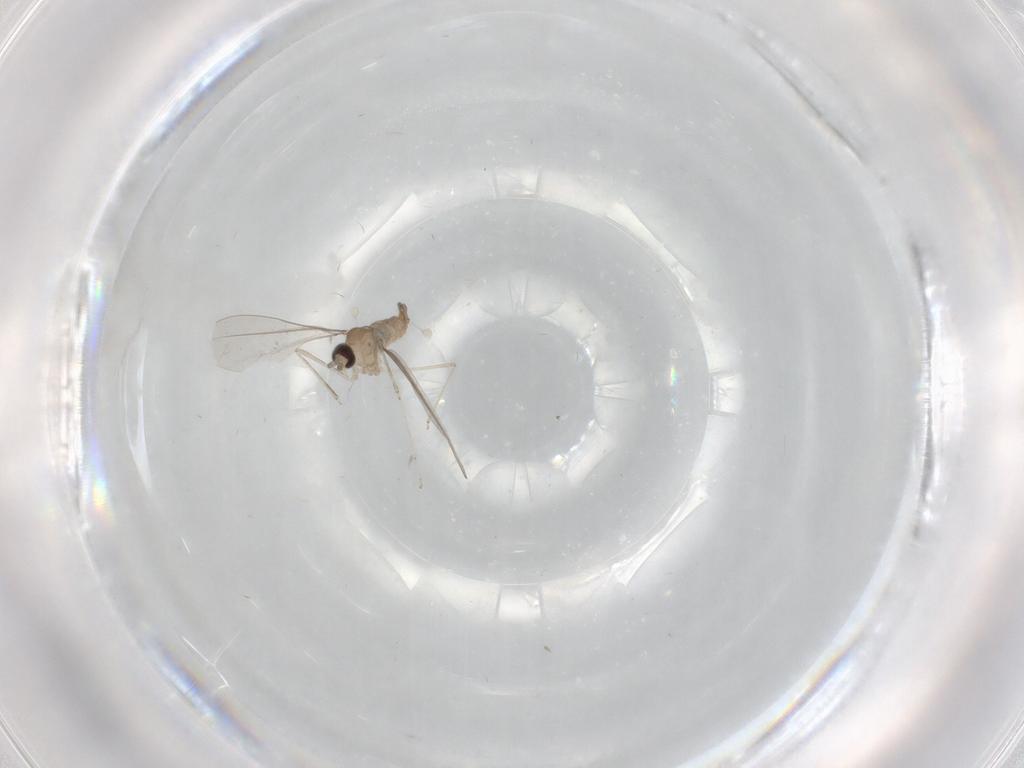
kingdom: Animalia
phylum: Arthropoda
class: Insecta
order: Diptera
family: Cecidomyiidae
